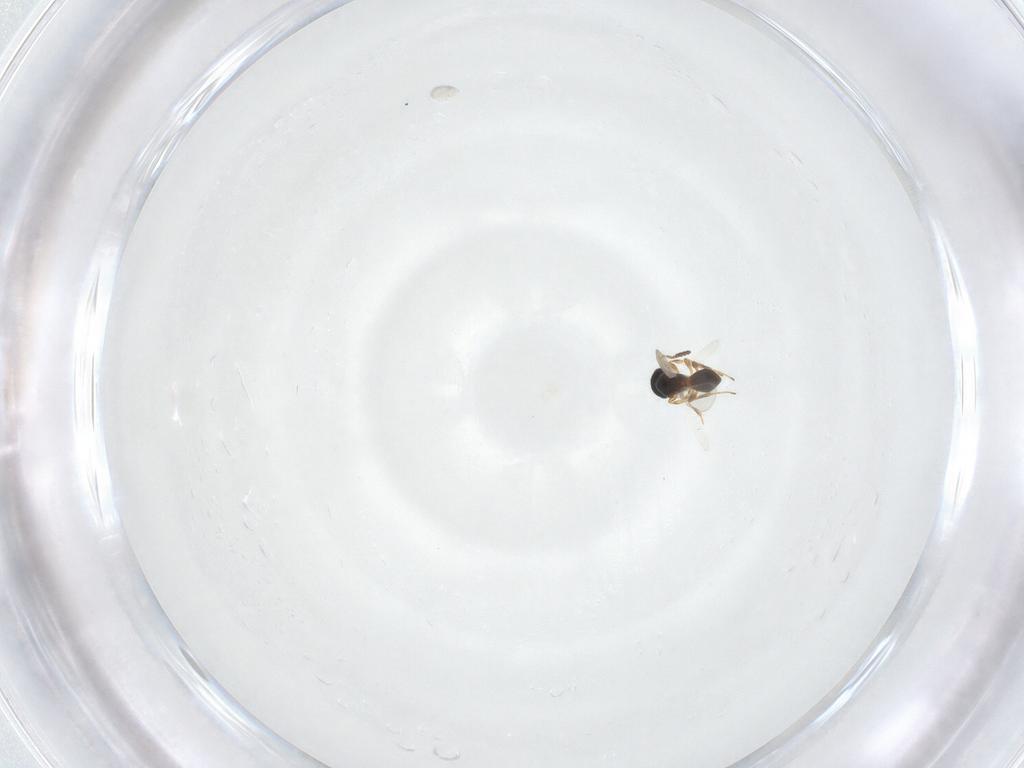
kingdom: Animalia
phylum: Arthropoda
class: Insecta
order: Hymenoptera
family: Platygastridae
